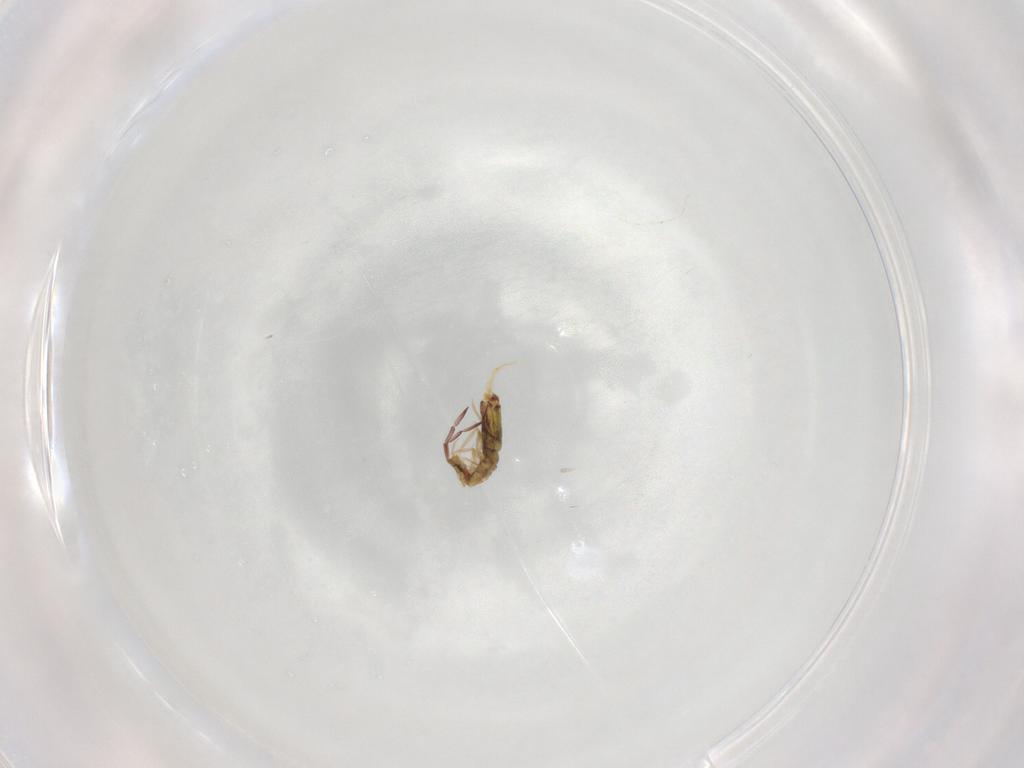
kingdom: Animalia
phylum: Arthropoda
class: Collembola
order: Entomobryomorpha
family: Entomobryidae
